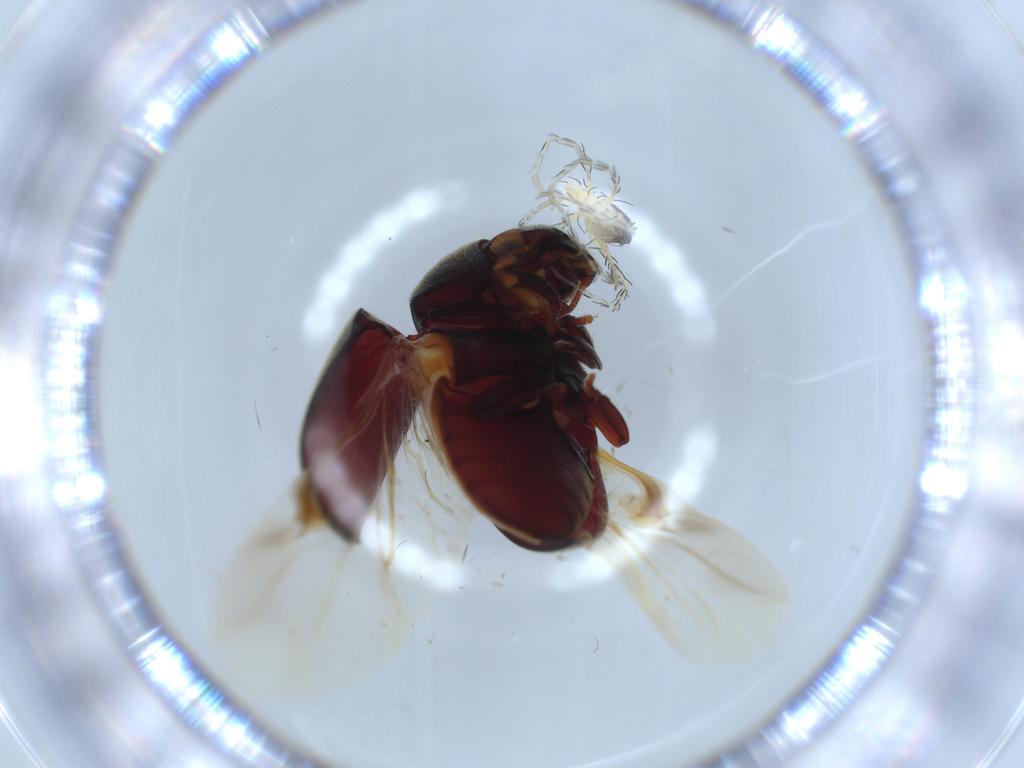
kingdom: Animalia
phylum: Arthropoda
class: Arachnida
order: Trombidiformes
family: Erythraeidae
